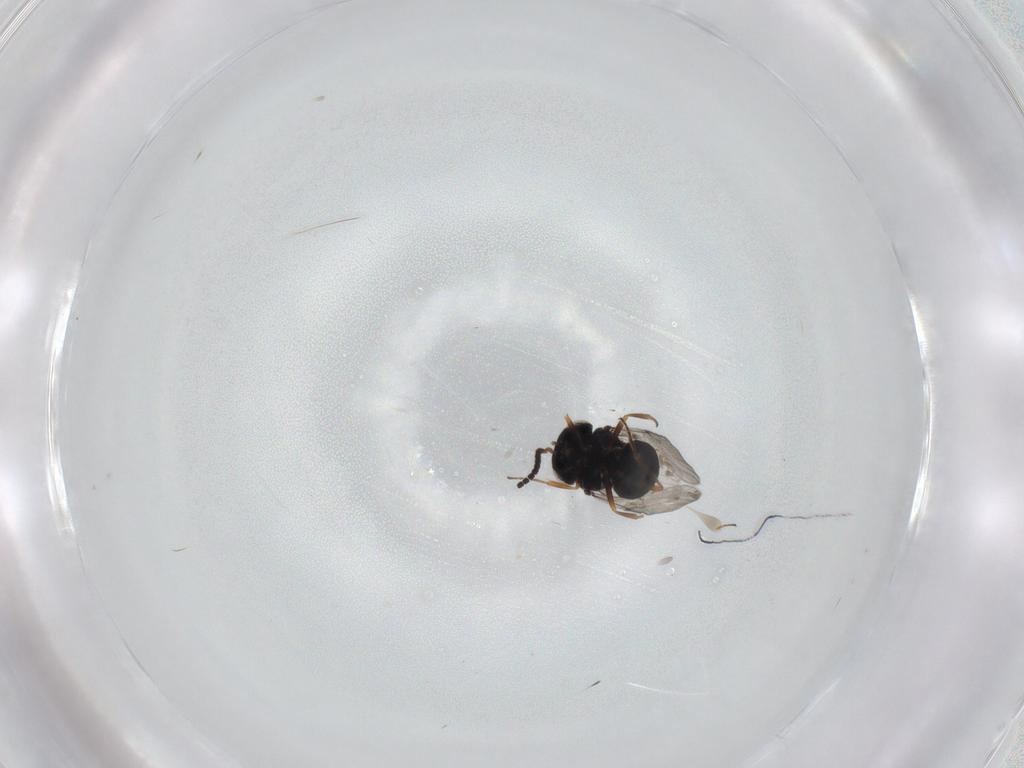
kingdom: Animalia
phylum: Arthropoda
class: Insecta
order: Hymenoptera
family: Scelionidae
